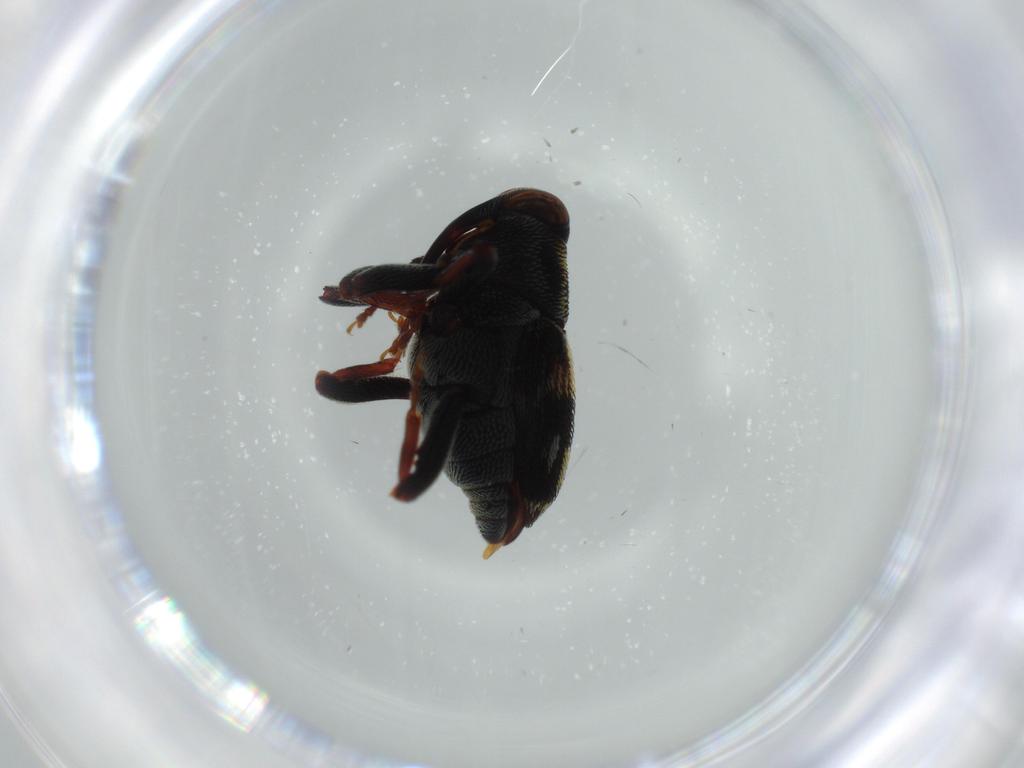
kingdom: Animalia
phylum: Arthropoda
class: Insecta
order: Coleoptera
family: Curculionidae
